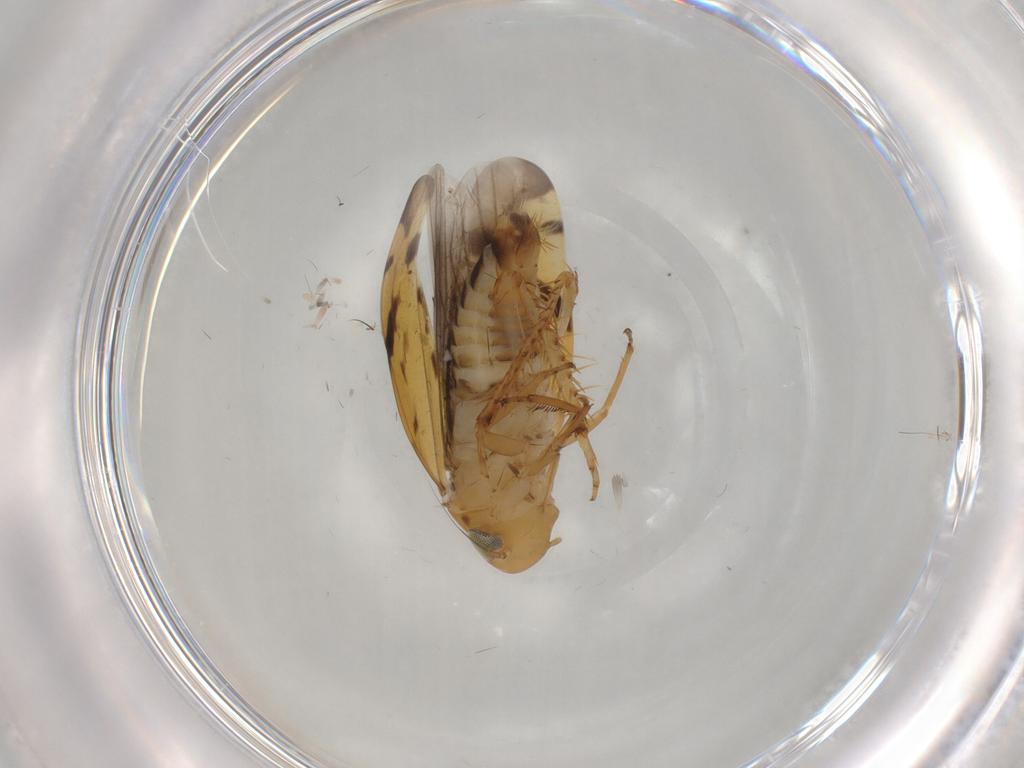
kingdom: Animalia
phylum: Arthropoda
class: Insecta
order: Hemiptera
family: Cicadellidae
